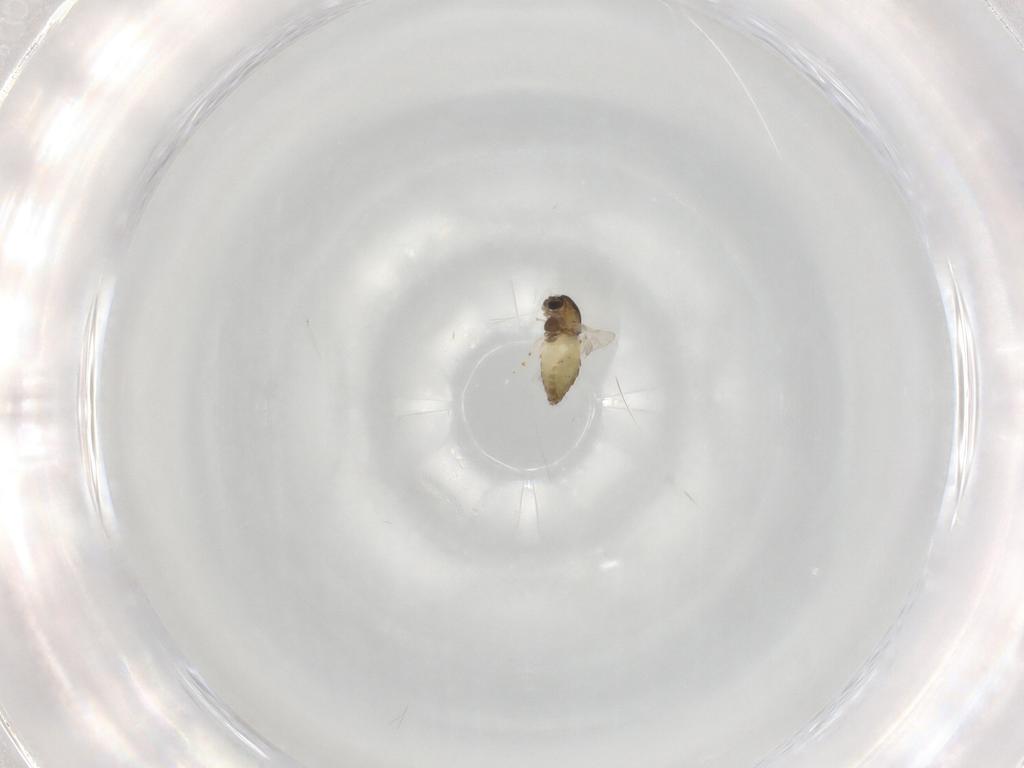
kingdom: Animalia
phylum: Arthropoda
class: Insecta
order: Diptera
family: Chironomidae
